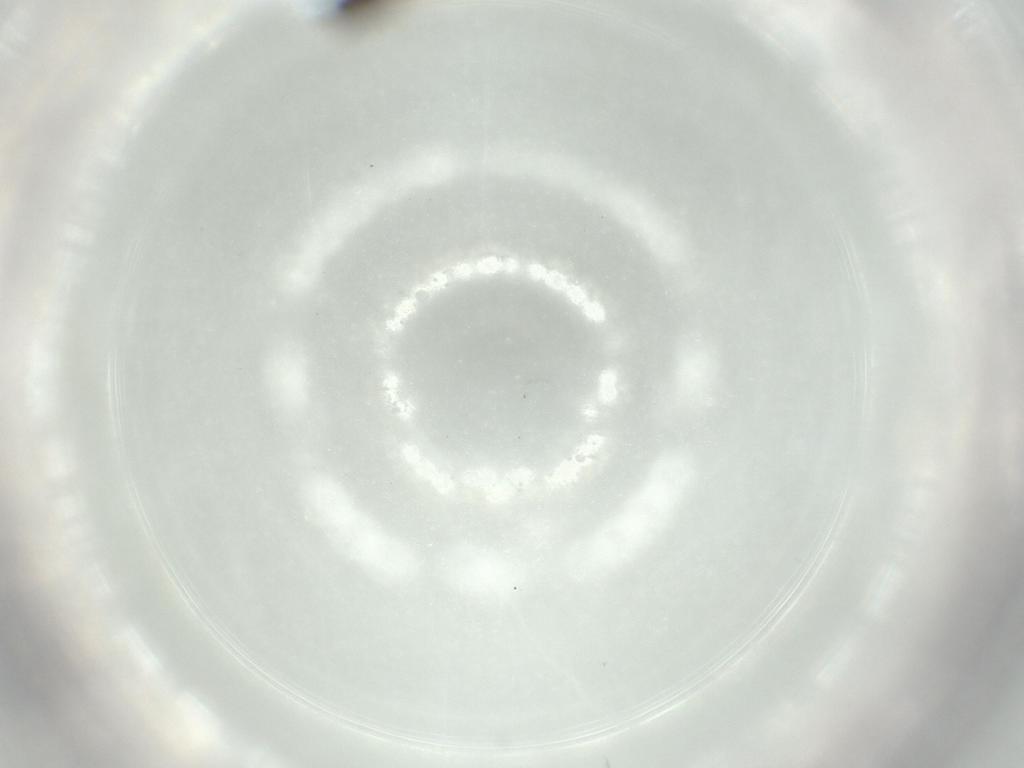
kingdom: Animalia
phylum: Arthropoda
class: Insecta
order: Hymenoptera
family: Scelionidae
